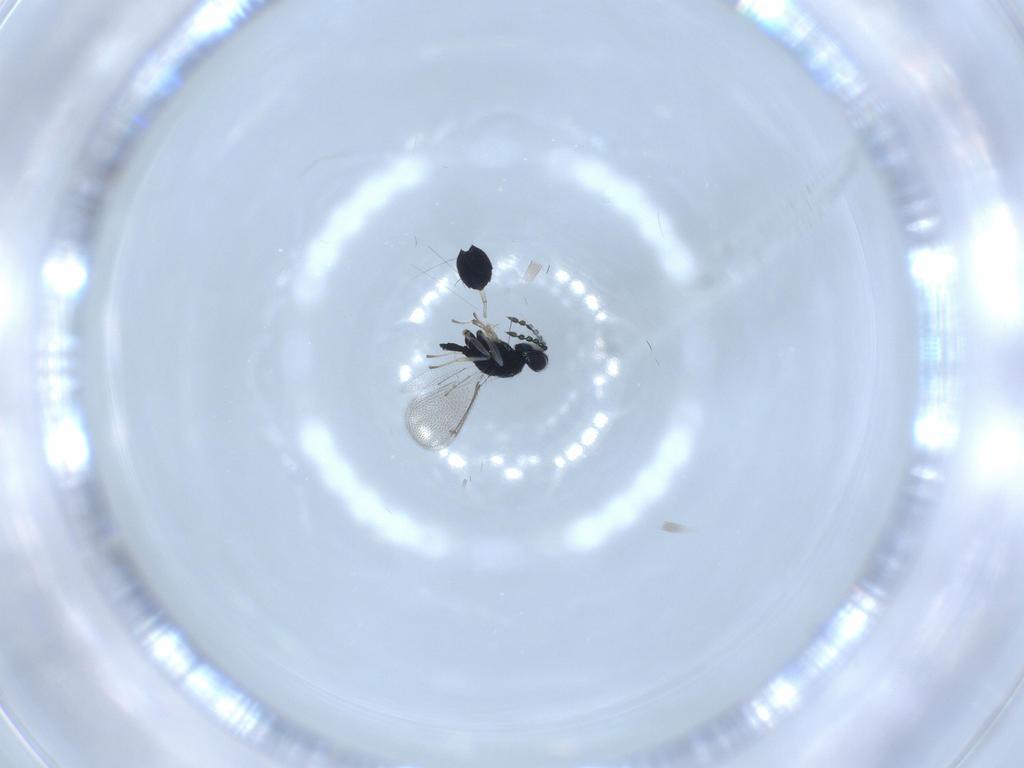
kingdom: Animalia
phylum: Arthropoda
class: Insecta
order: Hymenoptera
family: Eulophidae
